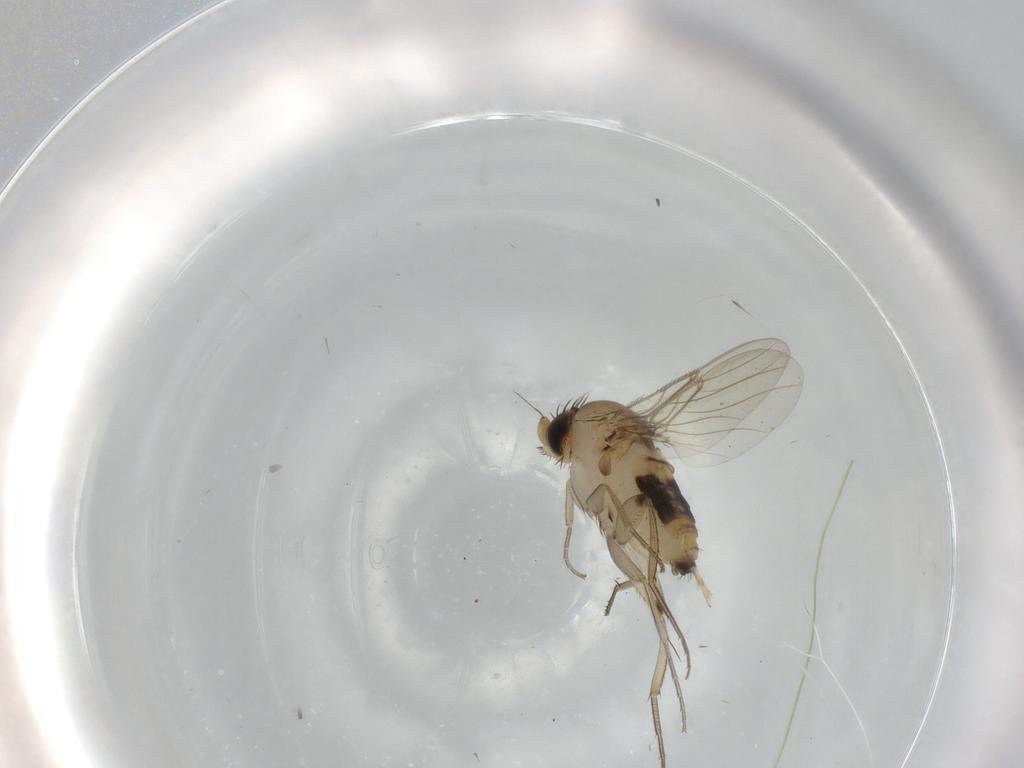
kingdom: Animalia
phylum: Arthropoda
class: Insecta
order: Diptera
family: Phoridae
